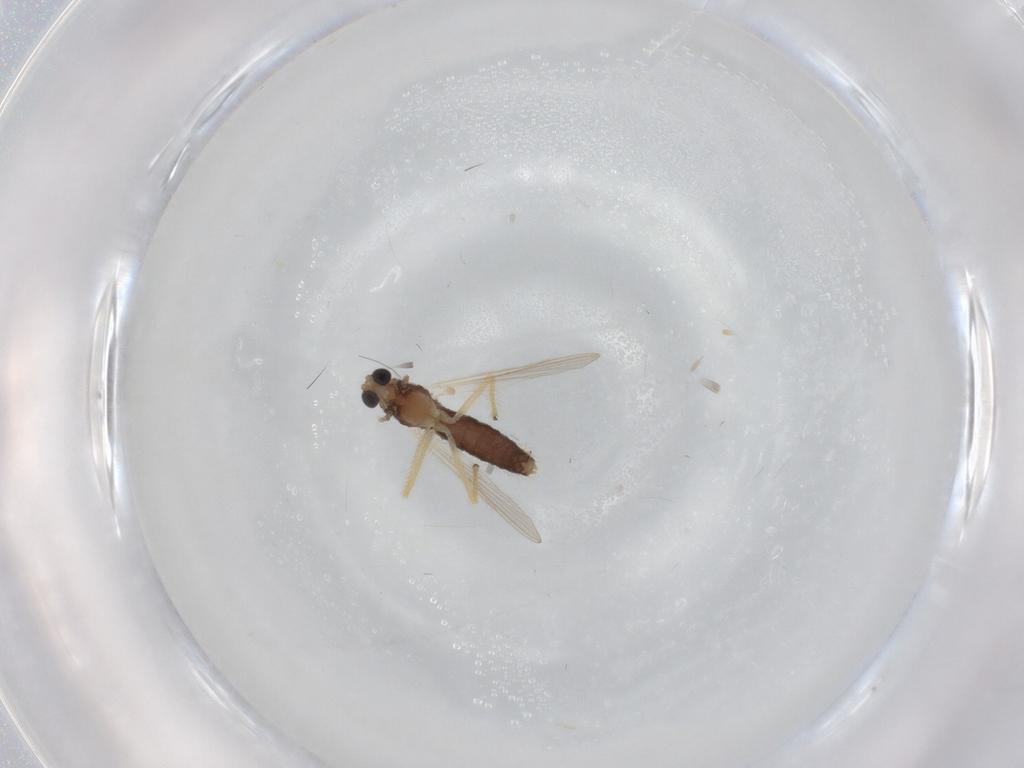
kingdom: Animalia
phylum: Arthropoda
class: Insecta
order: Diptera
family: Chironomidae
